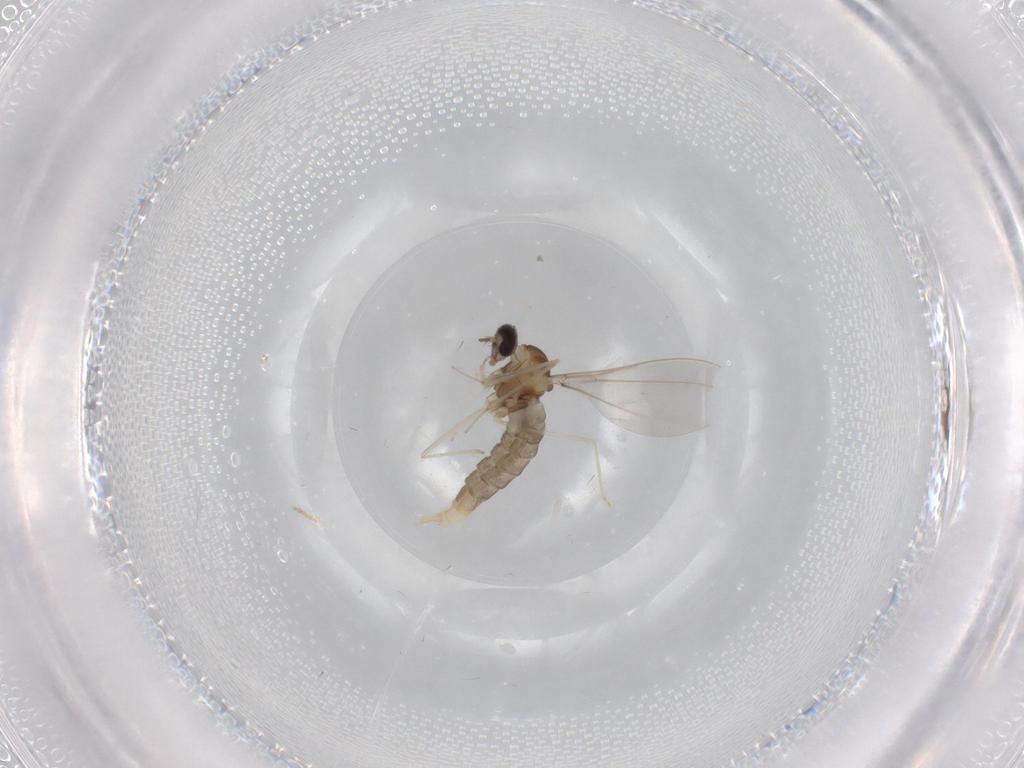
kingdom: Animalia
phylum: Arthropoda
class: Insecta
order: Diptera
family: Cecidomyiidae
